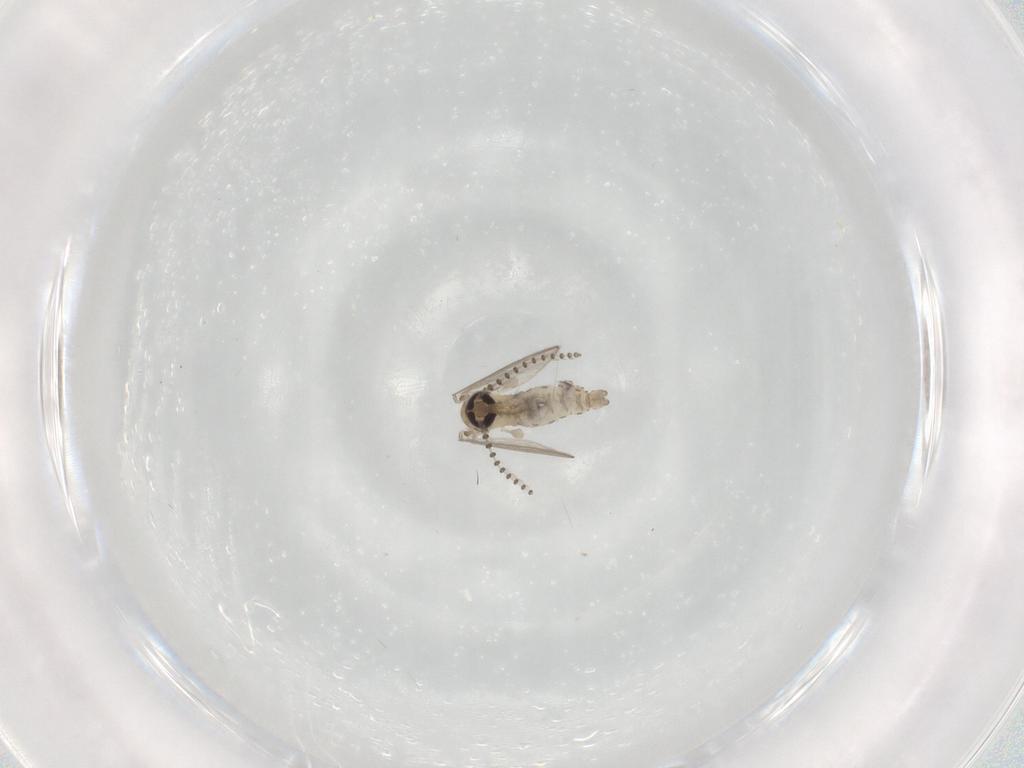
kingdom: Animalia
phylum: Arthropoda
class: Insecta
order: Diptera
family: Psychodidae
